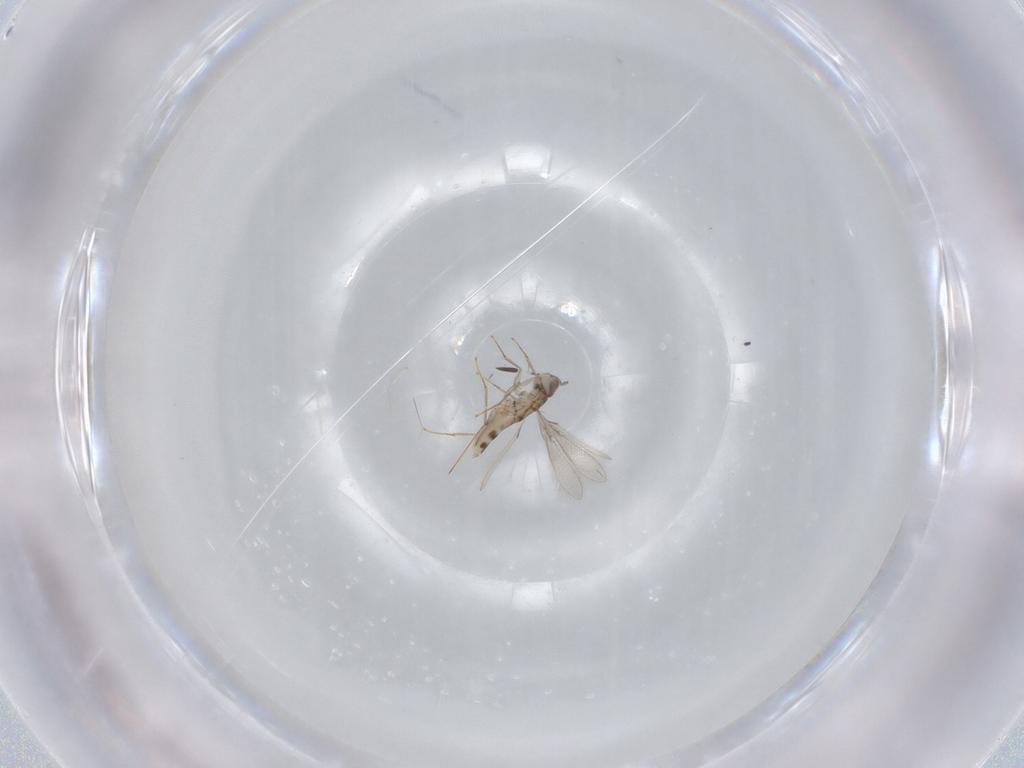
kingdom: Animalia
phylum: Arthropoda
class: Insecta
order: Hymenoptera
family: Mymaridae
